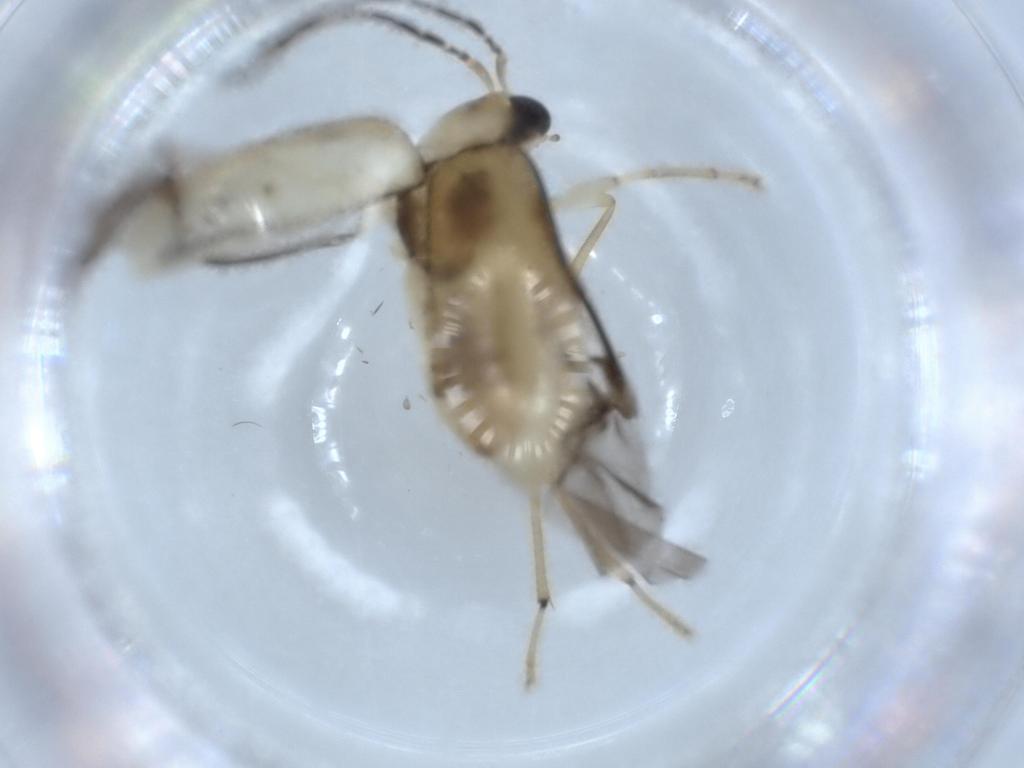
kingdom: Animalia
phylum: Arthropoda
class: Insecta
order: Coleoptera
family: Chrysomelidae
